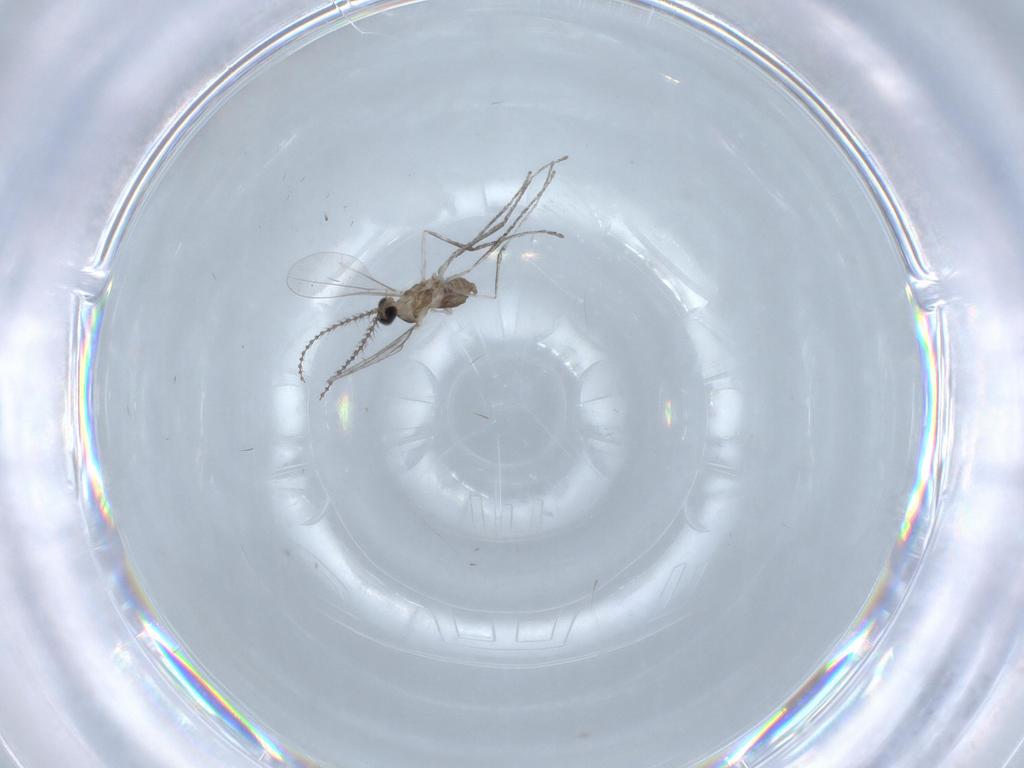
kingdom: Animalia
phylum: Arthropoda
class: Insecta
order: Diptera
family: Cecidomyiidae
